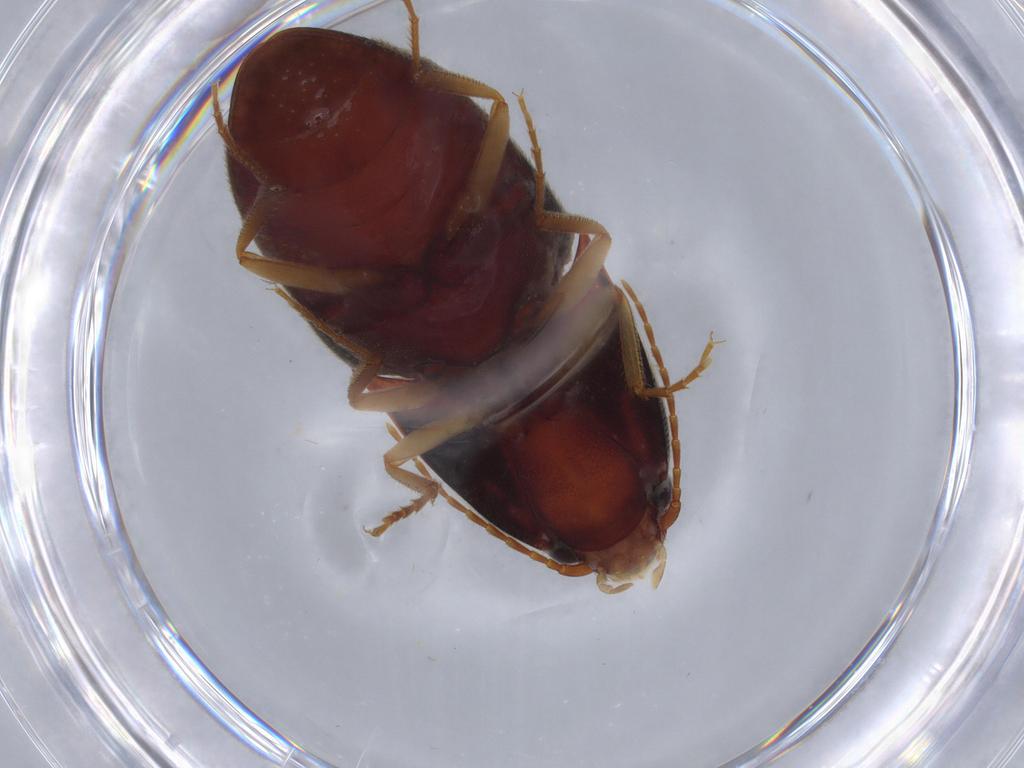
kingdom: Animalia
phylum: Arthropoda
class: Insecta
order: Coleoptera
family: Elateridae
